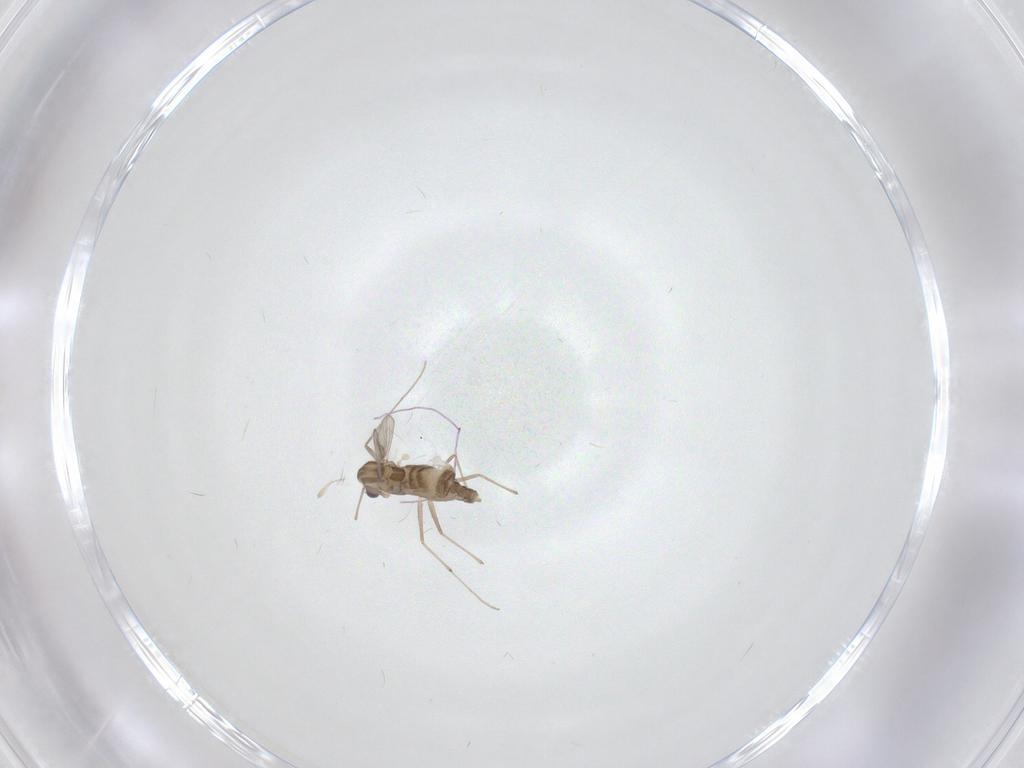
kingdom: Animalia
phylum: Arthropoda
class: Insecta
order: Diptera
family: Chironomidae
